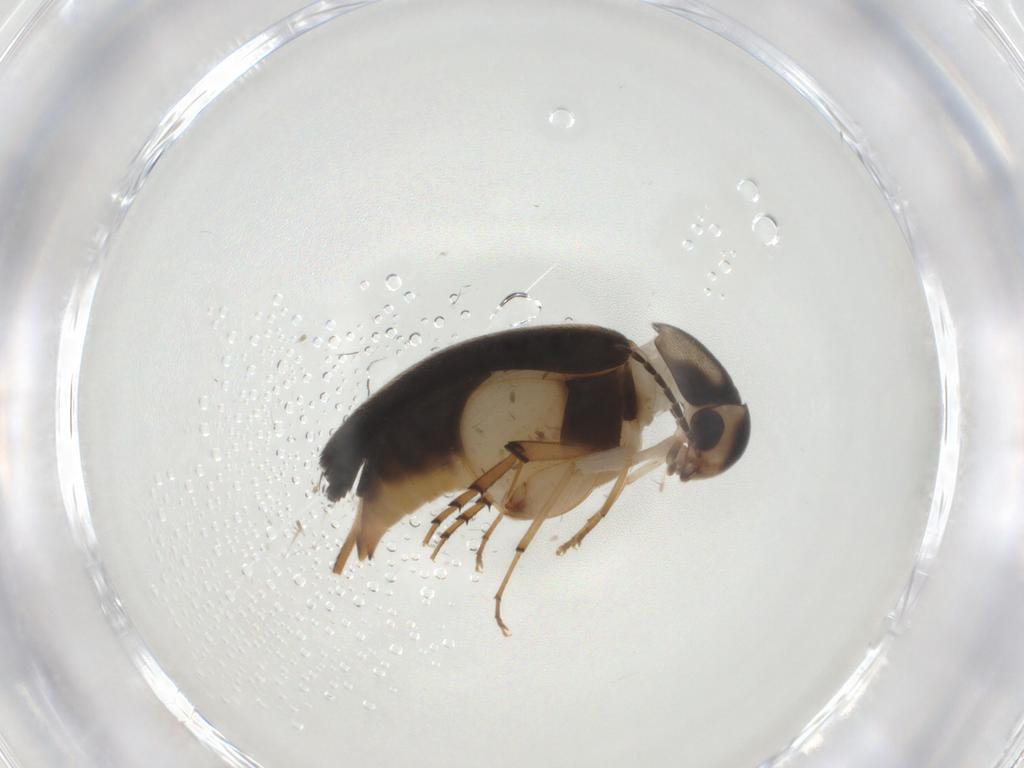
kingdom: Animalia
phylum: Arthropoda
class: Insecta
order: Coleoptera
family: Mordellidae
